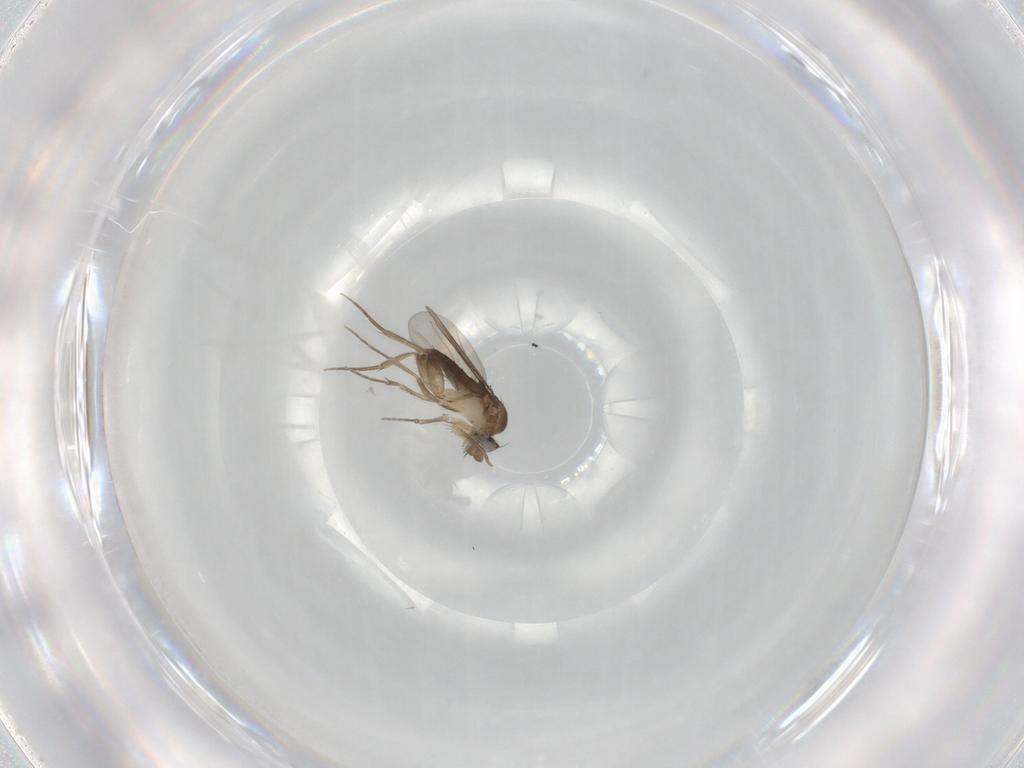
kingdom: Animalia
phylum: Arthropoda
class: Insecta
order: Diptera
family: Phoridae
